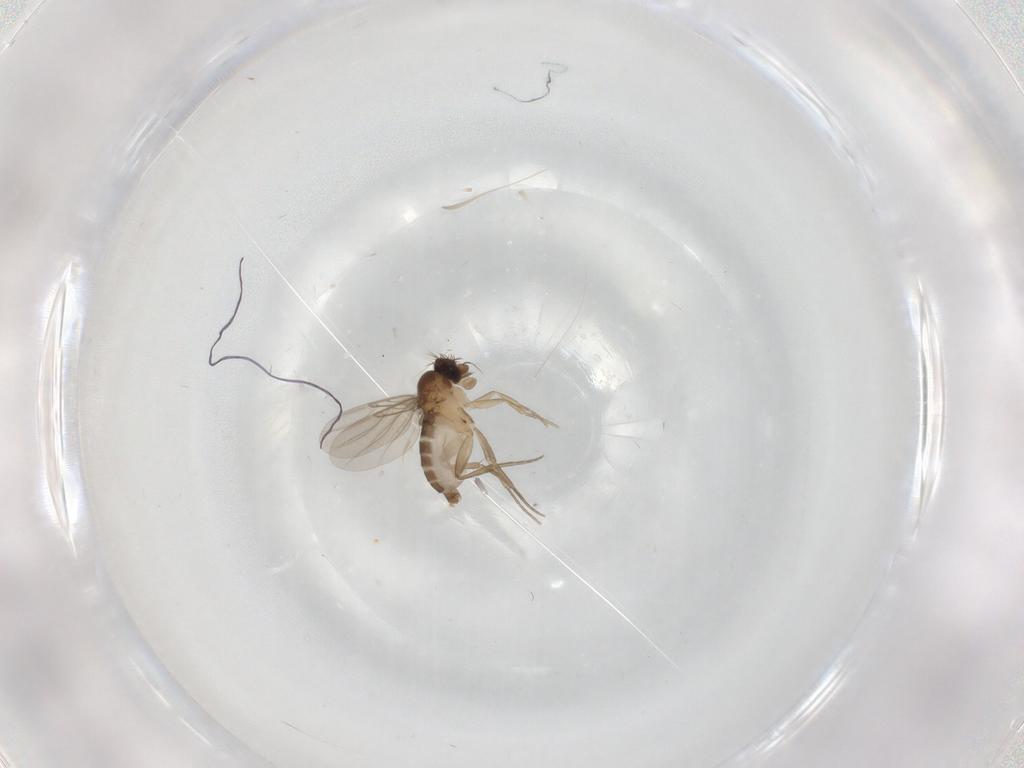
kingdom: Animalia
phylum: Arthropoda
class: Insecta
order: Diptera
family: Phoridae
